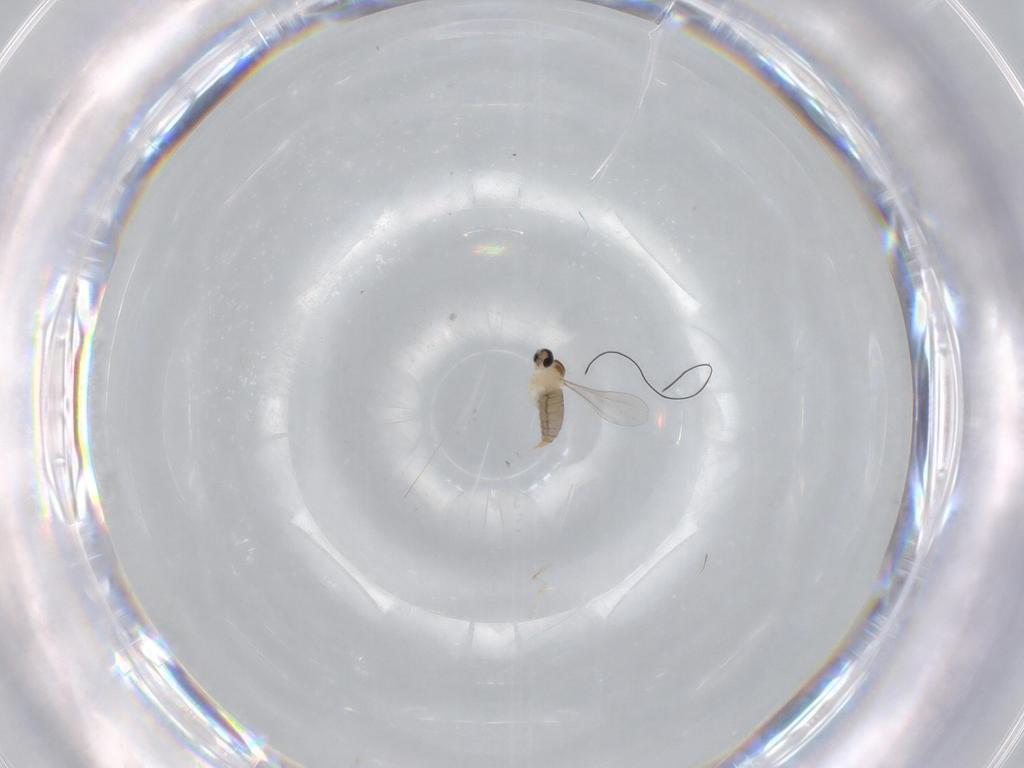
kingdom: Animalia
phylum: Arthropoda
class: Insecta
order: Diptera
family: Cecidomyiidae
